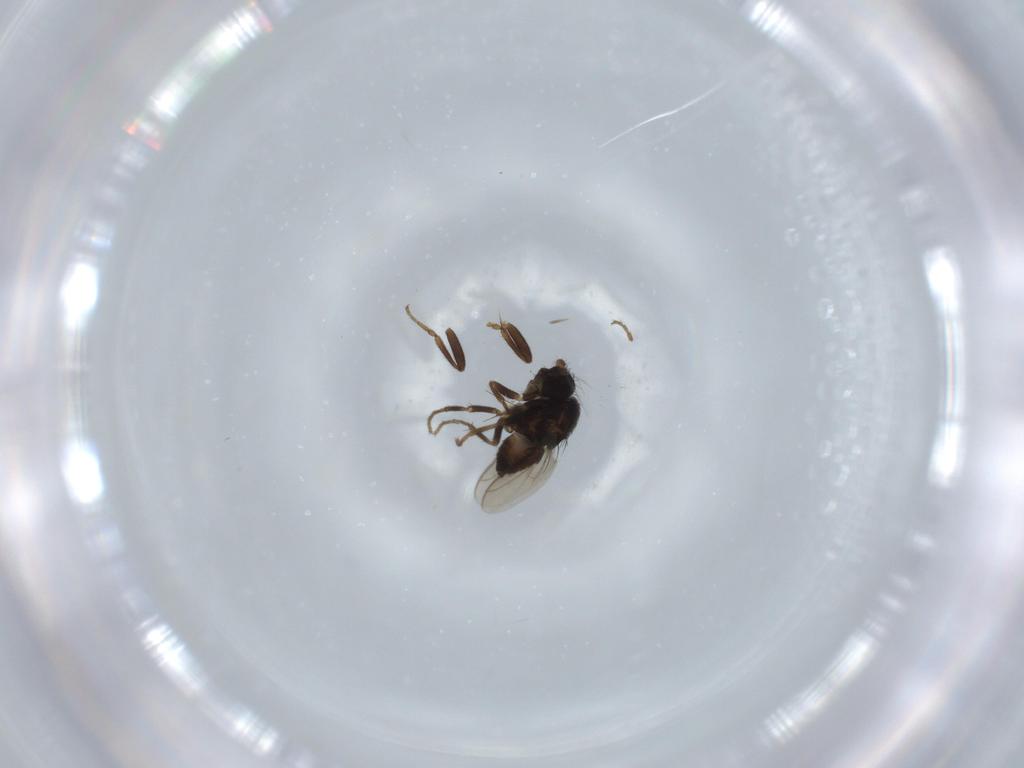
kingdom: Animalia
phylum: Arthropoda
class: Insecta
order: Diptera
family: Sphaeroceridae
